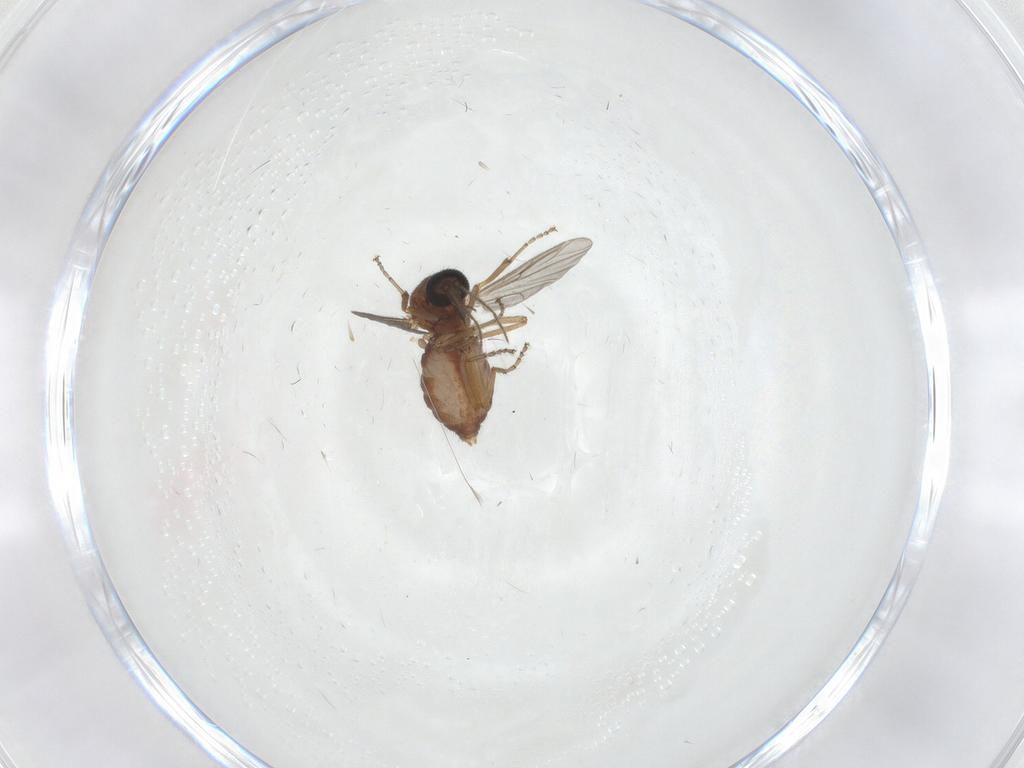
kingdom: Animalia
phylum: Arthropoda
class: Insecta
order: Diptera
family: Ceratopogonidae
